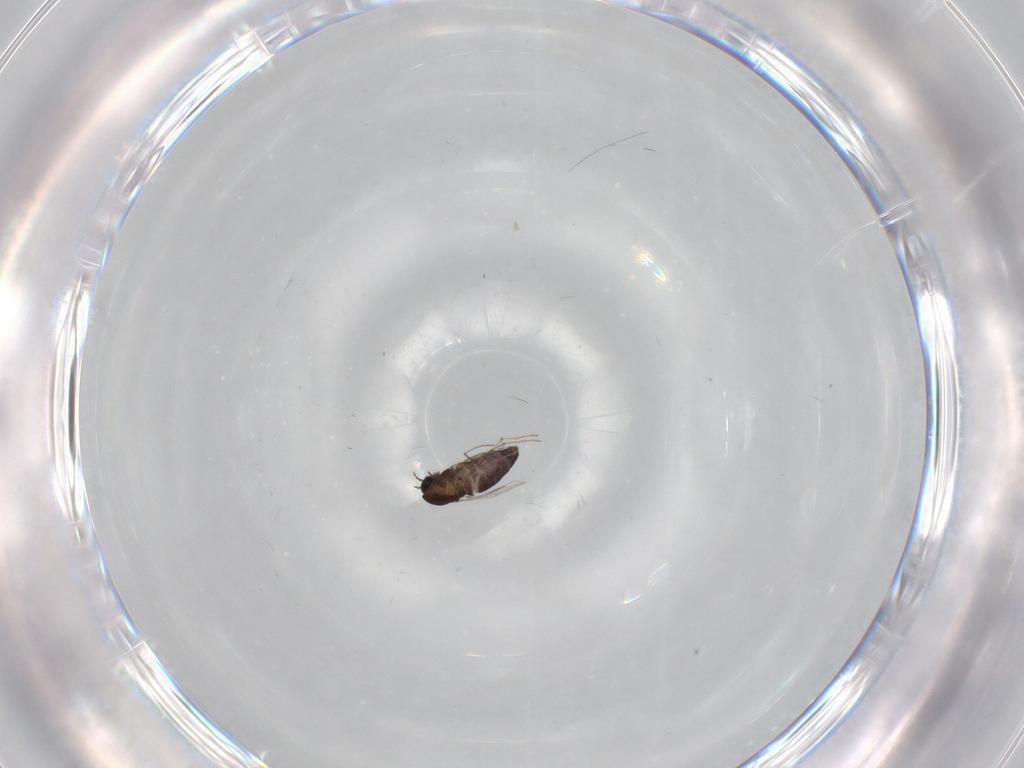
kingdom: Animalia
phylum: Arthropoda
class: Insecta
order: Diptera
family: Chironomidae
